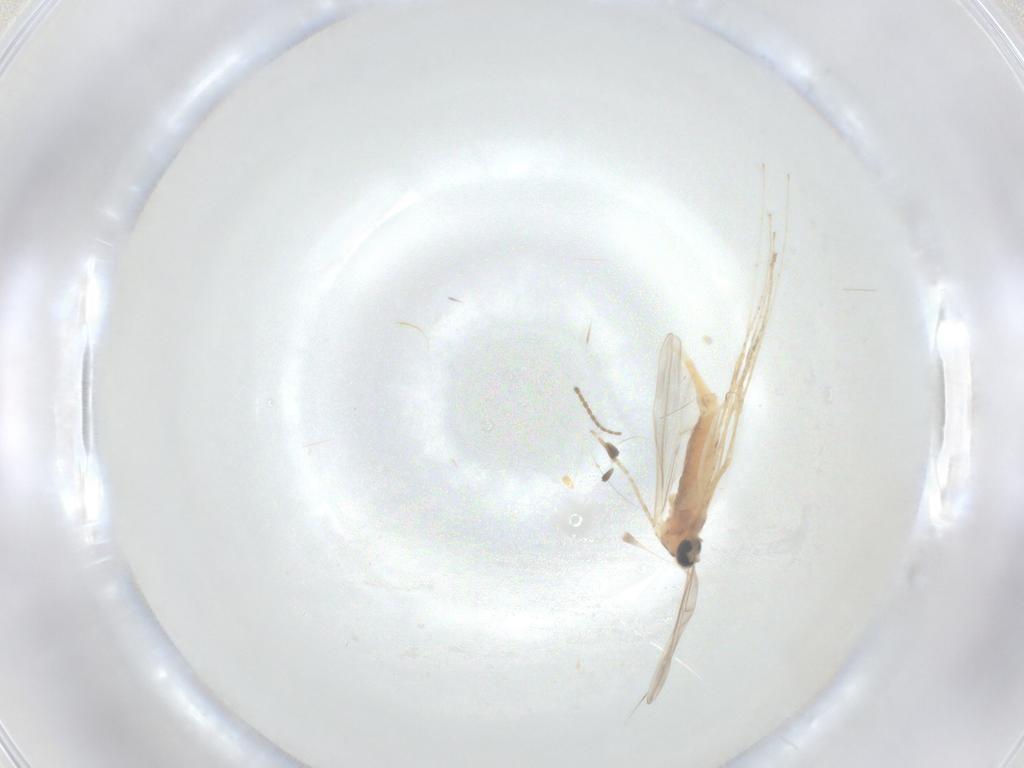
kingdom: Animalia
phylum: Arthropoda
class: Insecta
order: Diptera
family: Cecidomyiidae
